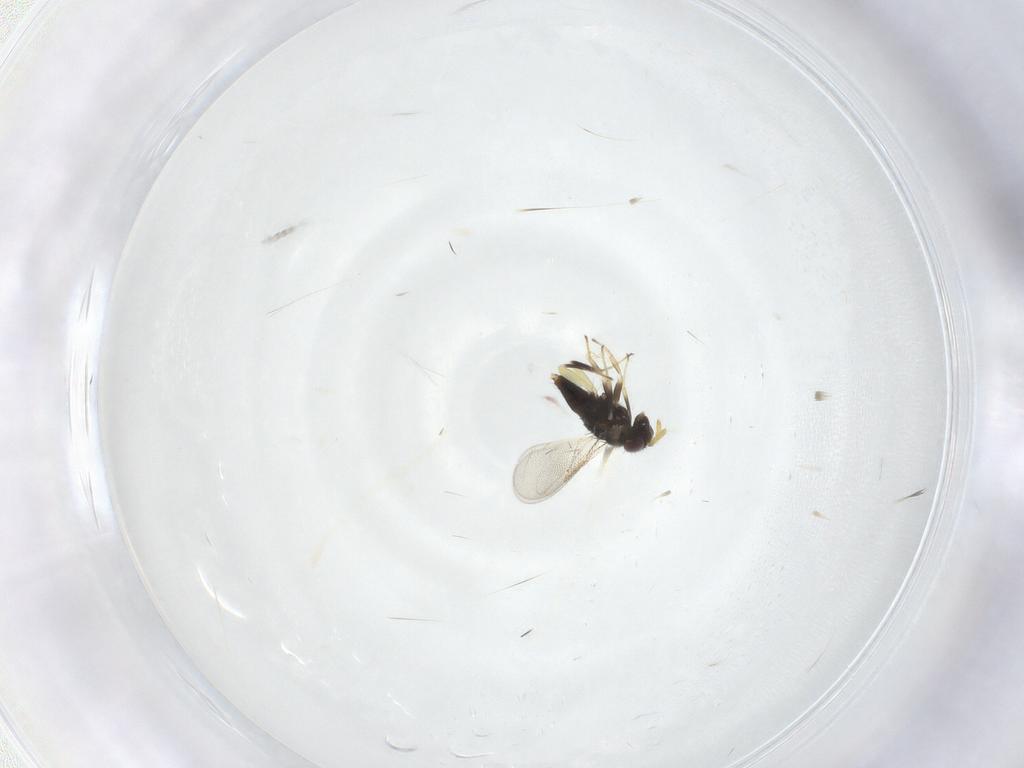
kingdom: Animalia
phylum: Arthropoda
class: Insecta
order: Hymenoptera
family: Aphelinidae
